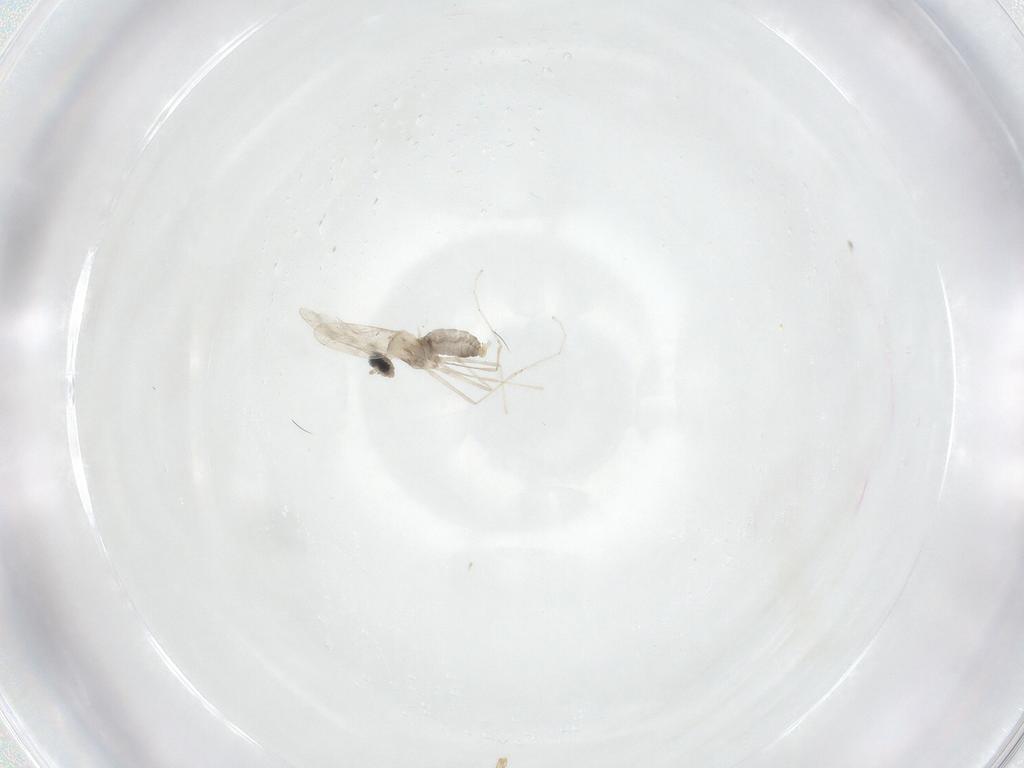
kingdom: Animalia
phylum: Arthropoda
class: Insecta
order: Diptera
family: Cecidomyiidae
